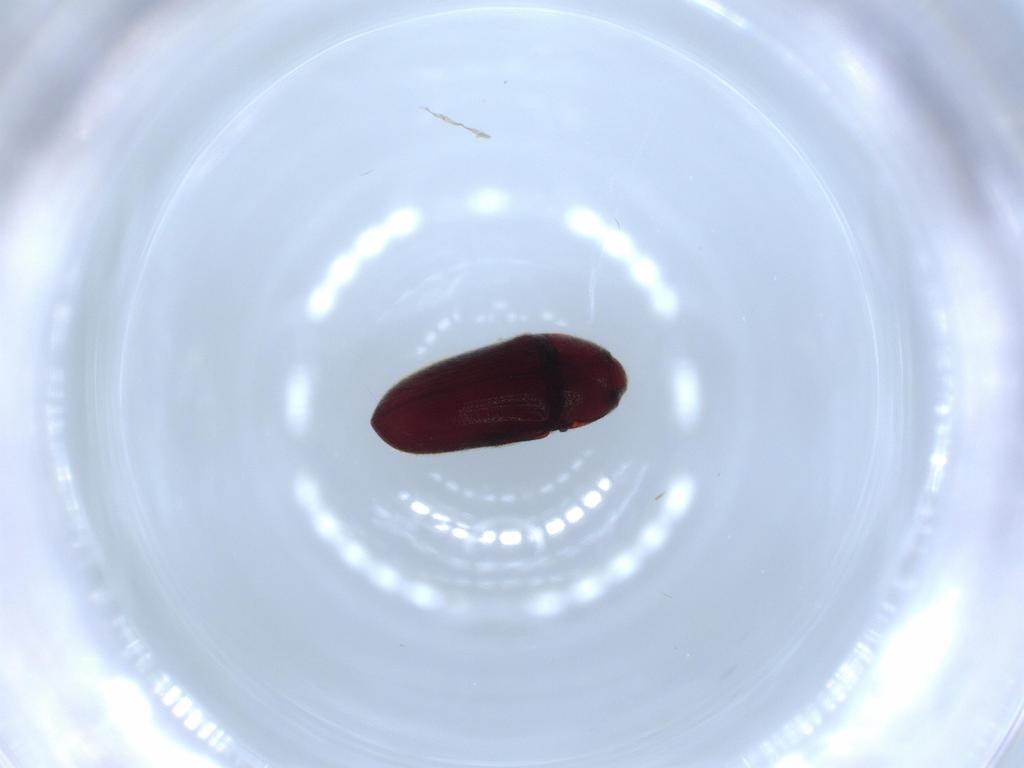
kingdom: Animalia
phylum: Arthropoda
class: Insecta
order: Coleoptera
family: Throscidae
